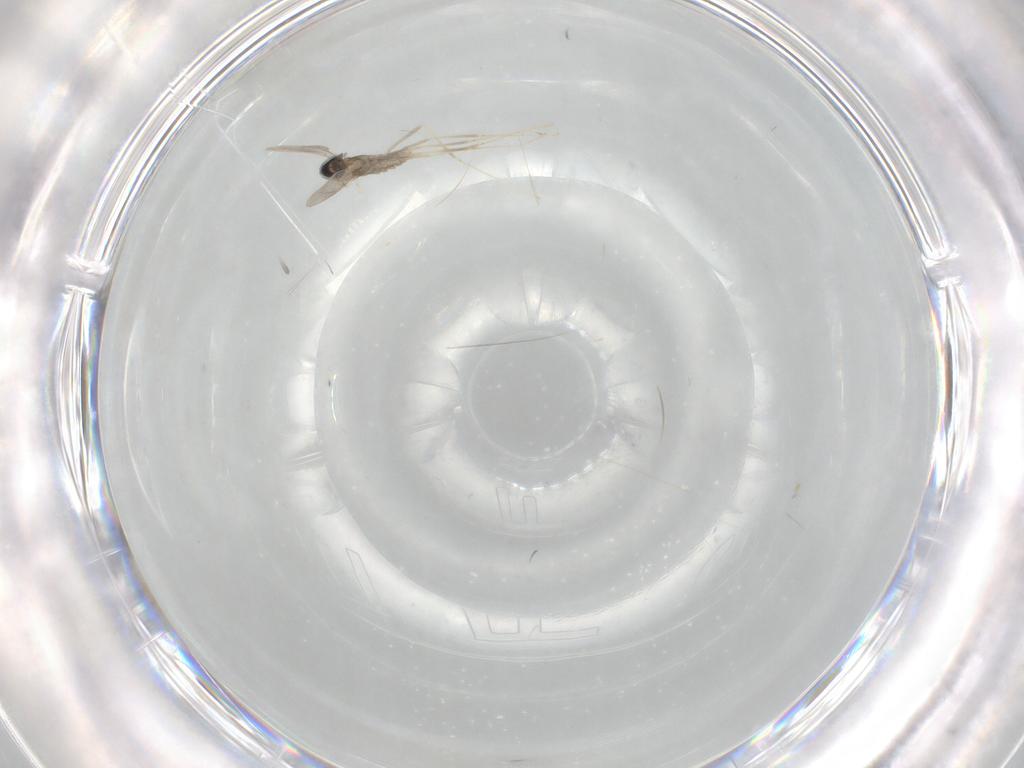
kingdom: Animalia
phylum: Arthropoda
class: Insecta
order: Diptera
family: Cecidomyiidae
